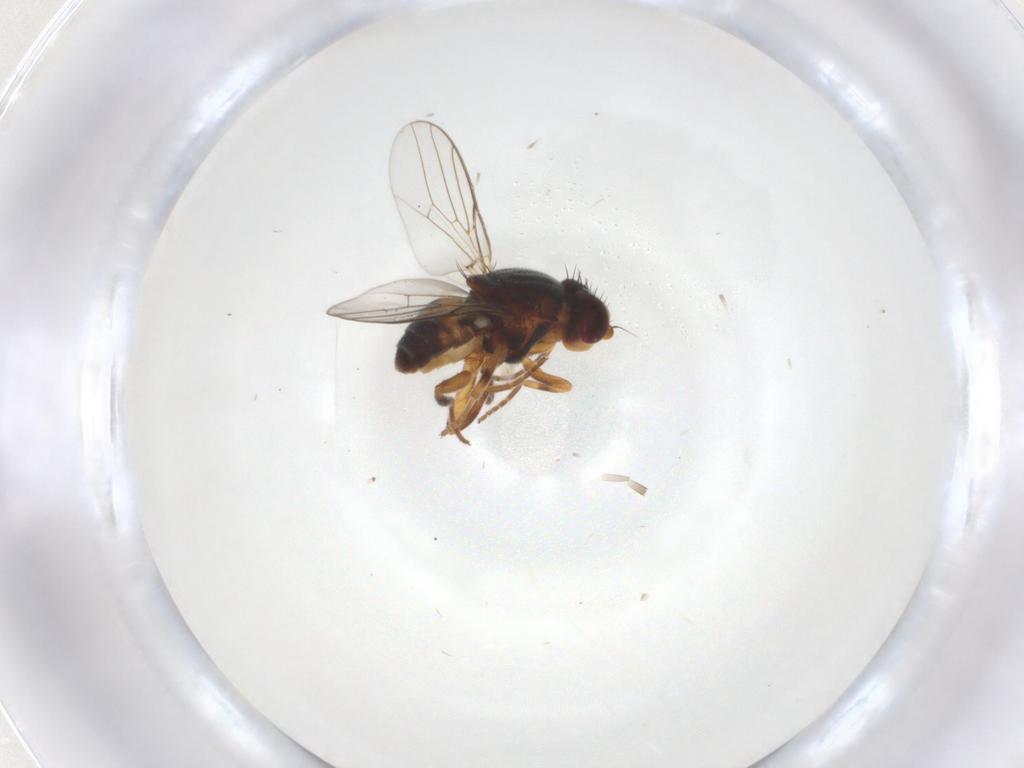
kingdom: Animalia
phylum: Arthropoda
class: Insecta
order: Diptera
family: Chloropidae
